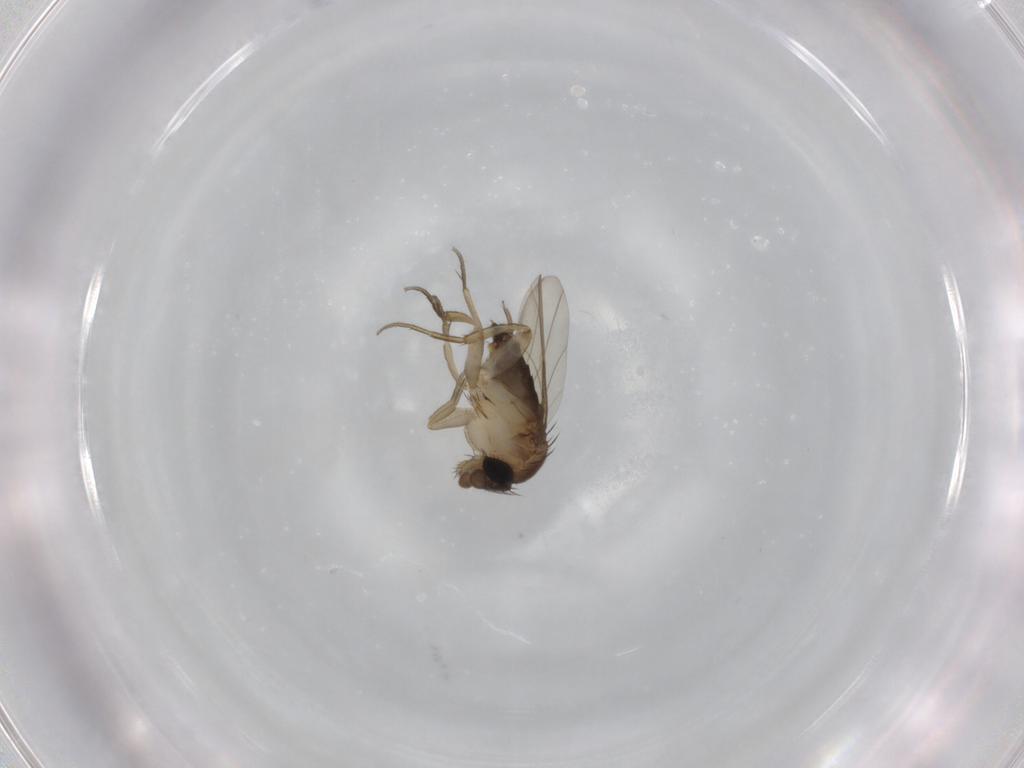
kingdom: Animalia
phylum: Arthropoda
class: Insecta
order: Diptera
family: Phoridae
